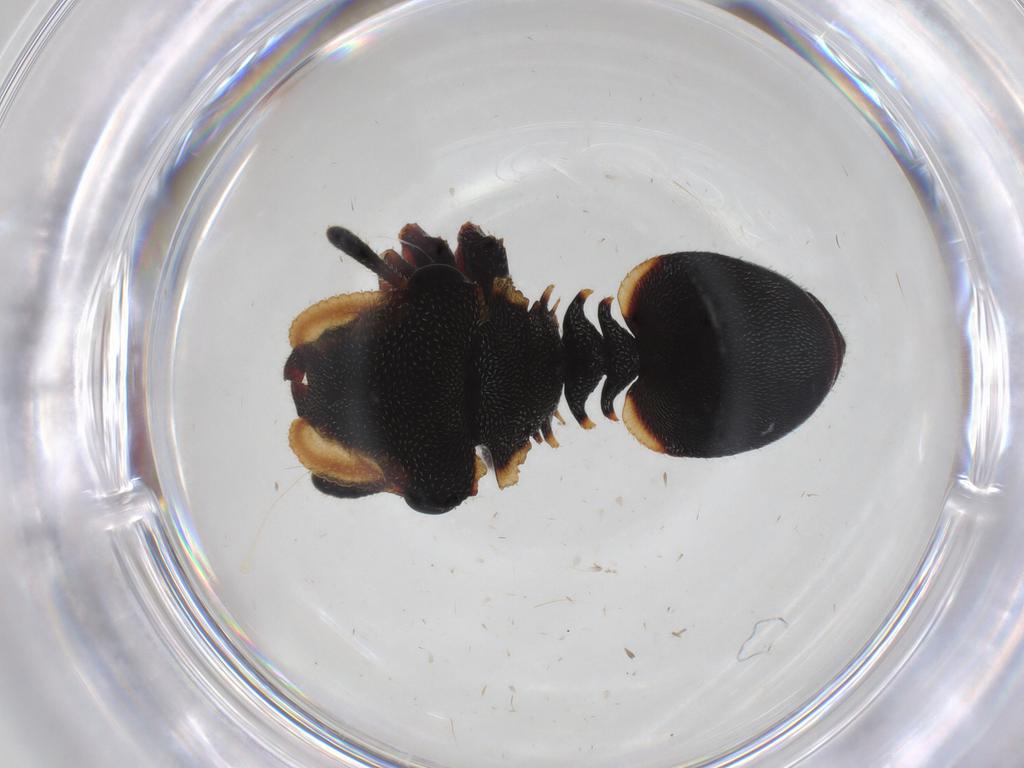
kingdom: Animalia
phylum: Arthropoda
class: Insecta
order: Hymenoptera
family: Formicidae
